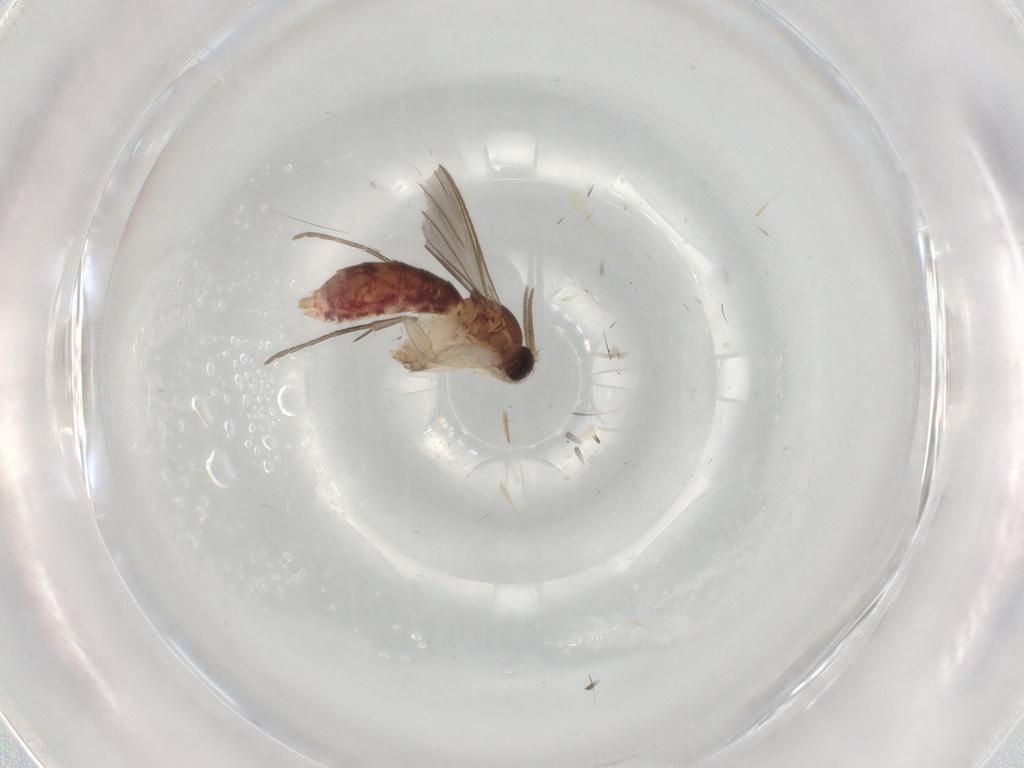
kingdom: Animalia
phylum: Arthropoda
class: Insecta
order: Diptera
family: Mycetophilidae
